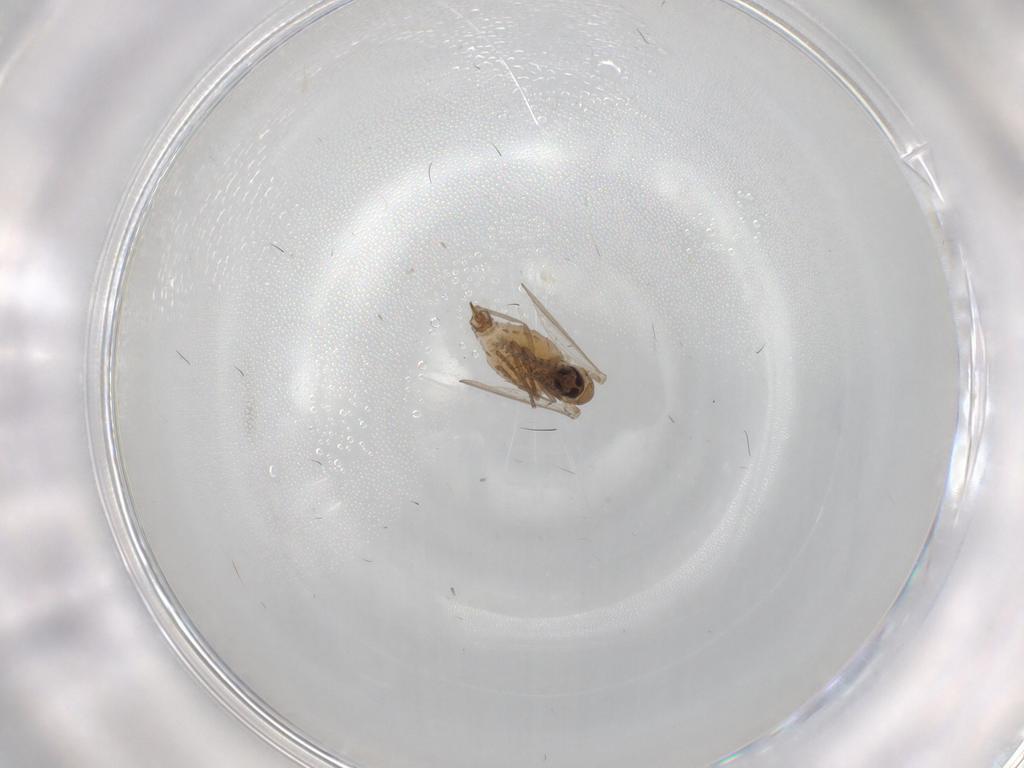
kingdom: Animalia
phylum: Arthropoda
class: Insecta
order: Diptera
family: Psychodidae
